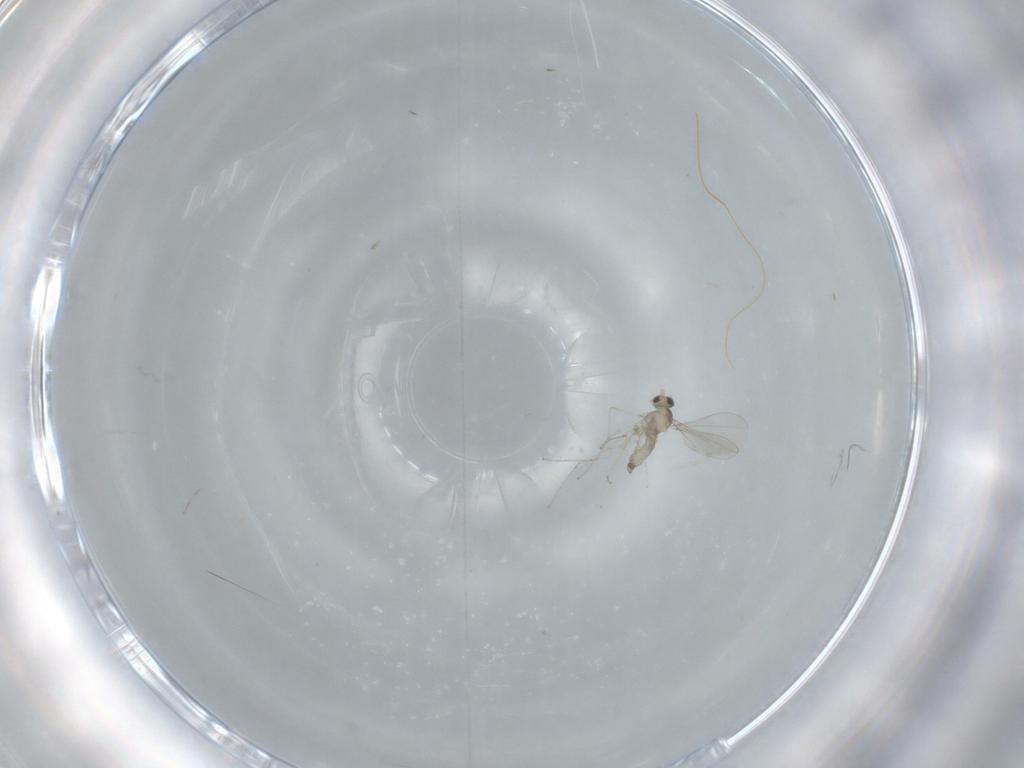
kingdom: Animalia
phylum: Arthropoda
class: Insecta
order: Diptera
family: Cecidomyiidae
